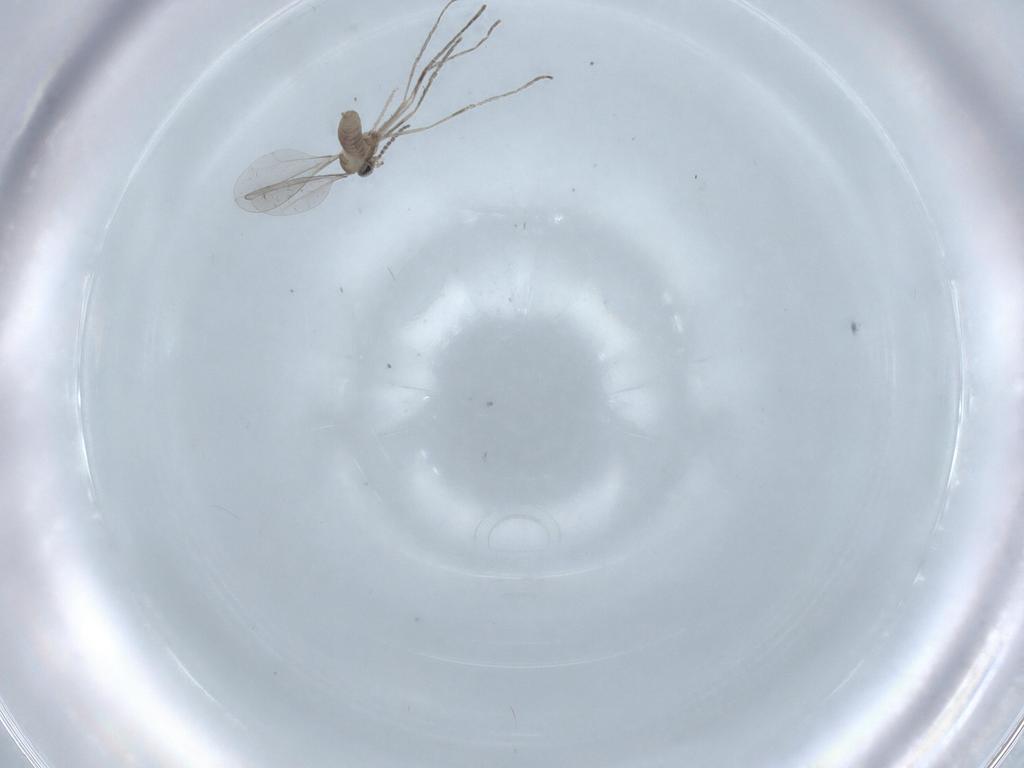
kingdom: Animalia
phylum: Arthropoda
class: Insecta
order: Diptera
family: Cecidomyiidae
